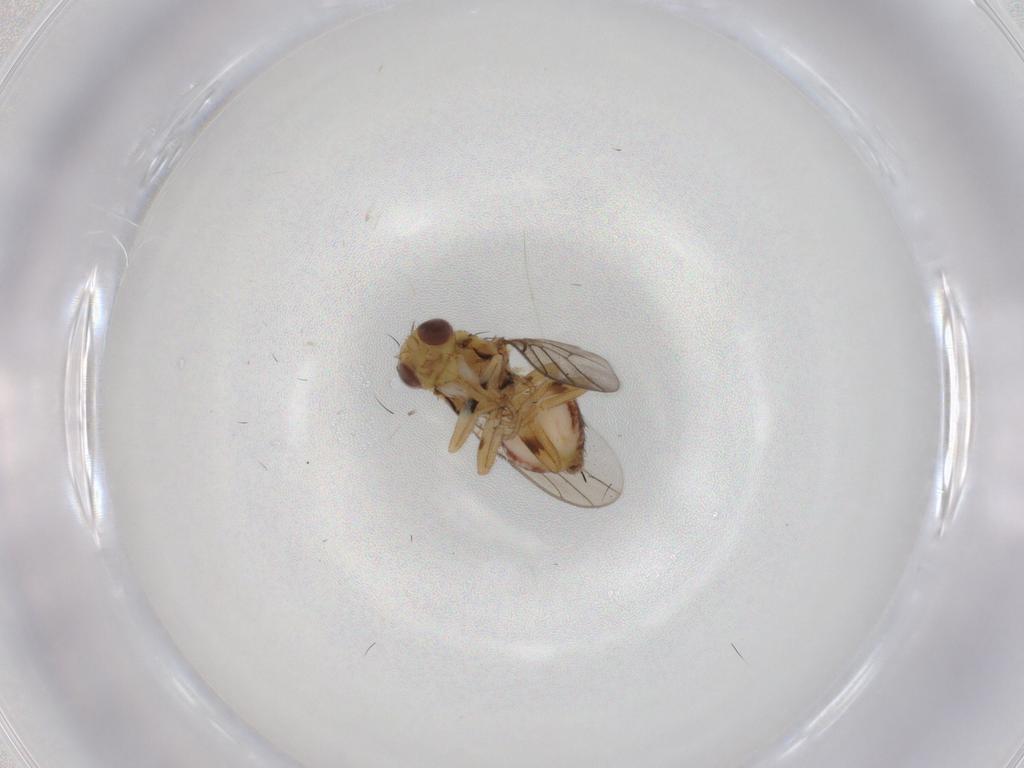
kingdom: Animalia
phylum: Arthropoda
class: Insecta
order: Diptera
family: Chloropidae
